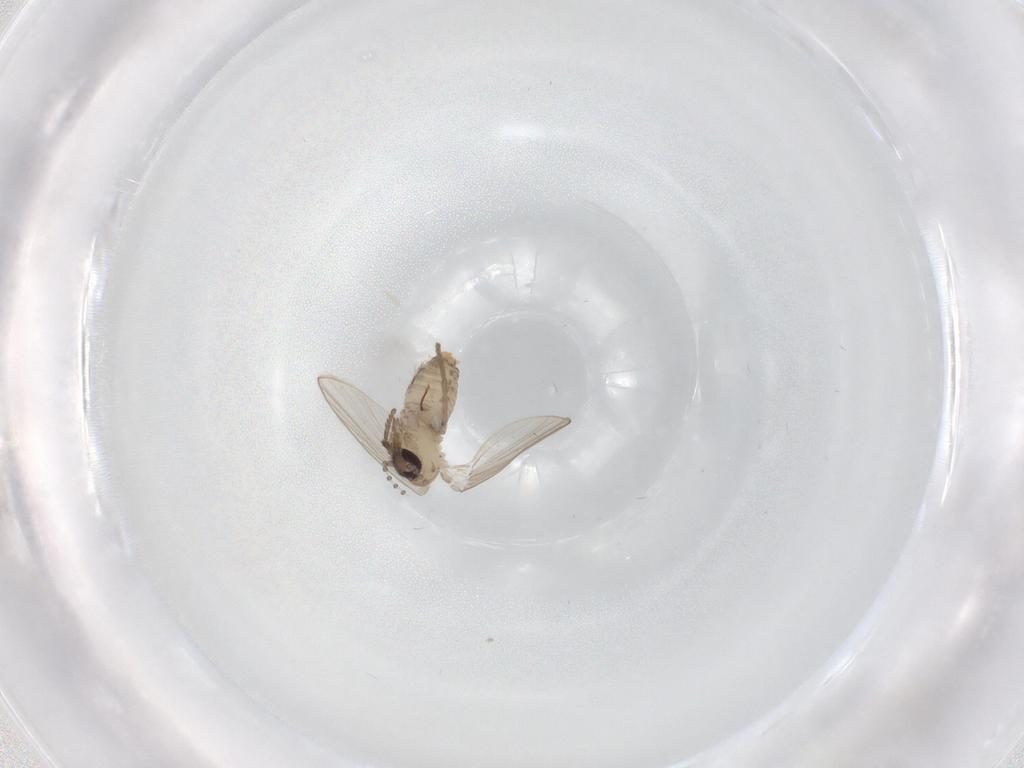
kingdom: Animalia
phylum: Arthropoda
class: Insecta
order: Diptera
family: Psychodidae
